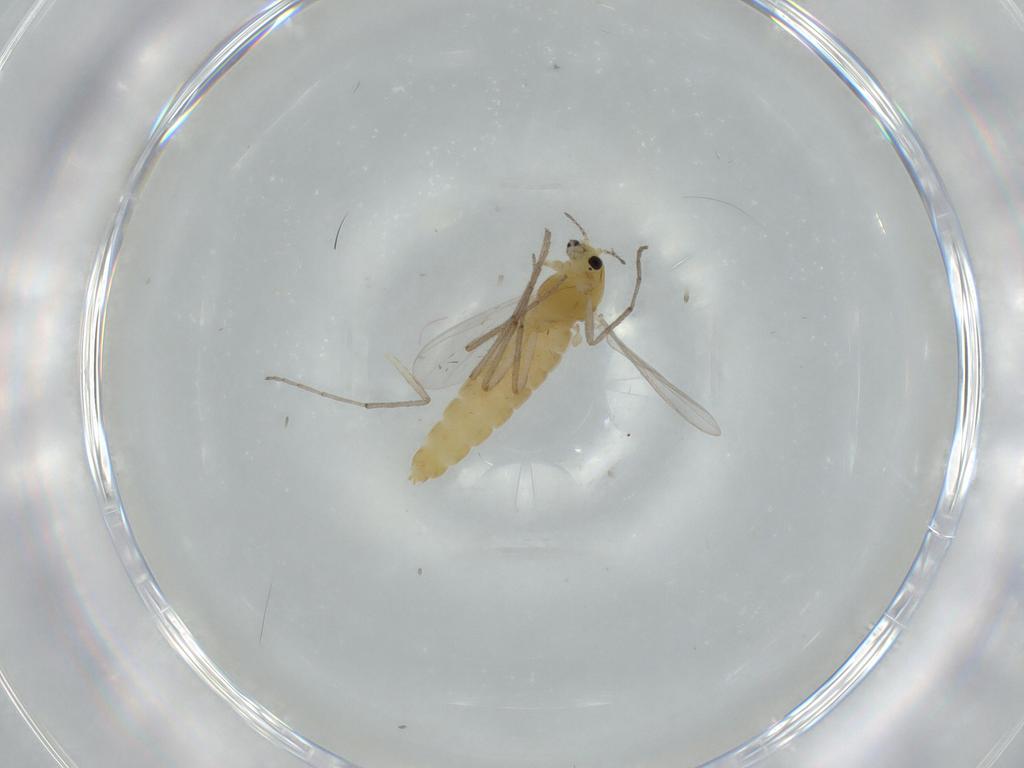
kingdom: Animalia
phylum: Arthropoda
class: Insecta
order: Diptera
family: Chironomidae
